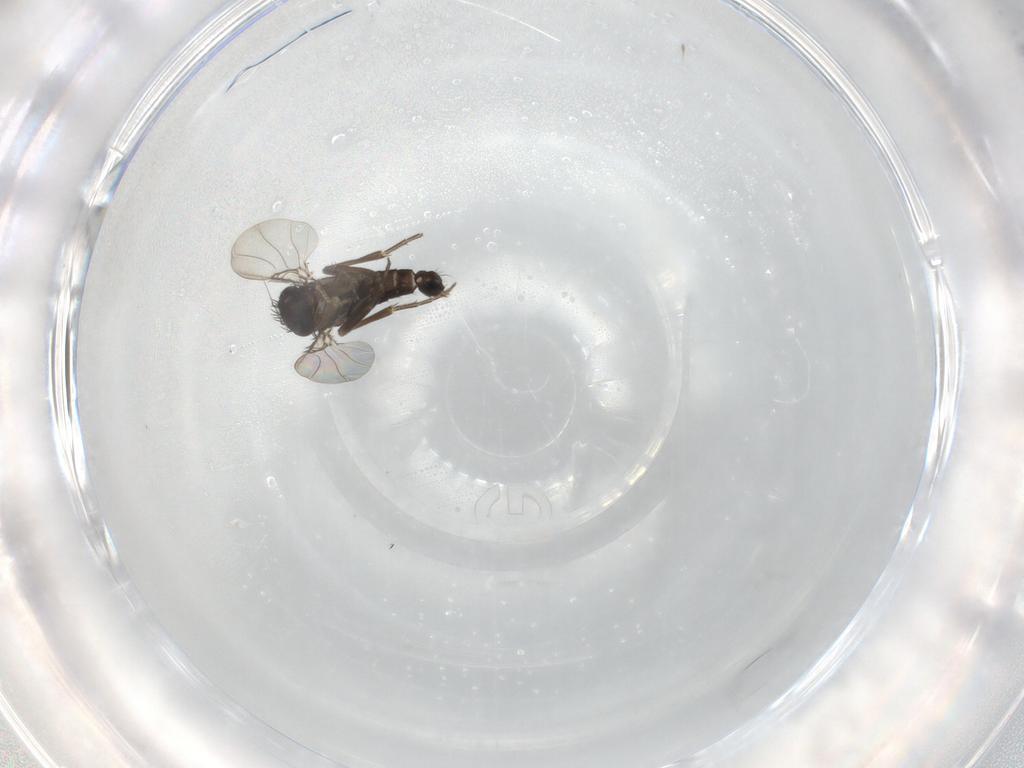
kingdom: Animalia
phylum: Arthropoda
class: Insecta
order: Diptera
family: Phoridae
